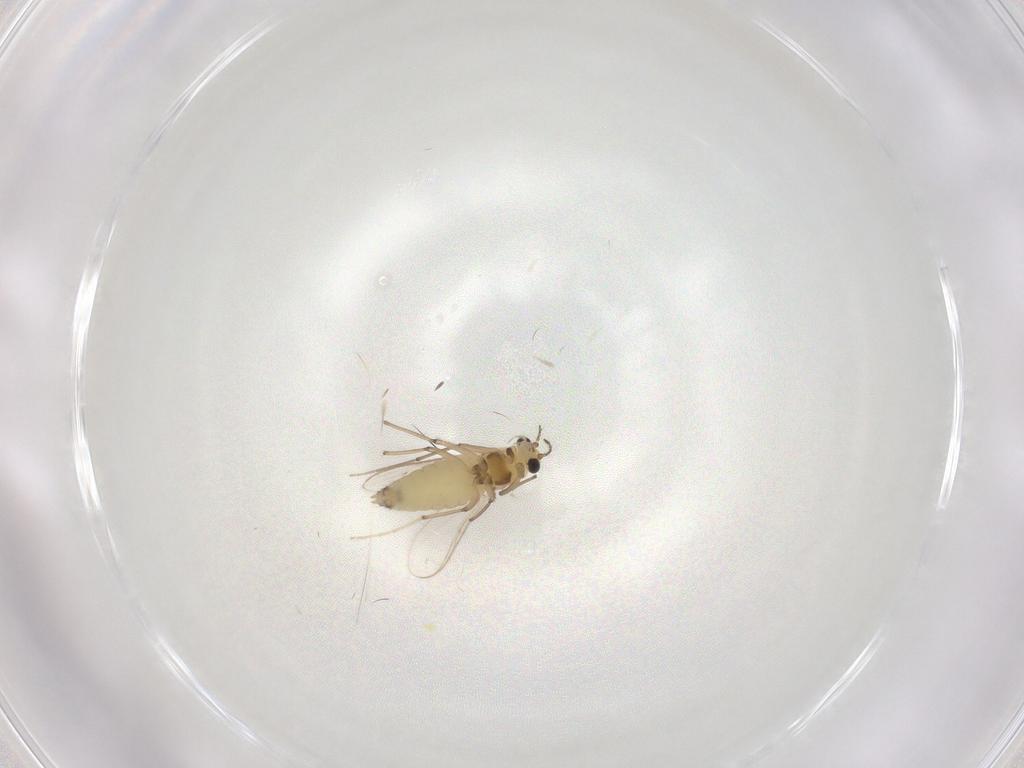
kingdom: Animalia
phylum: Arthropoda
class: Insecta
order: Diptera
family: Chironomidae
